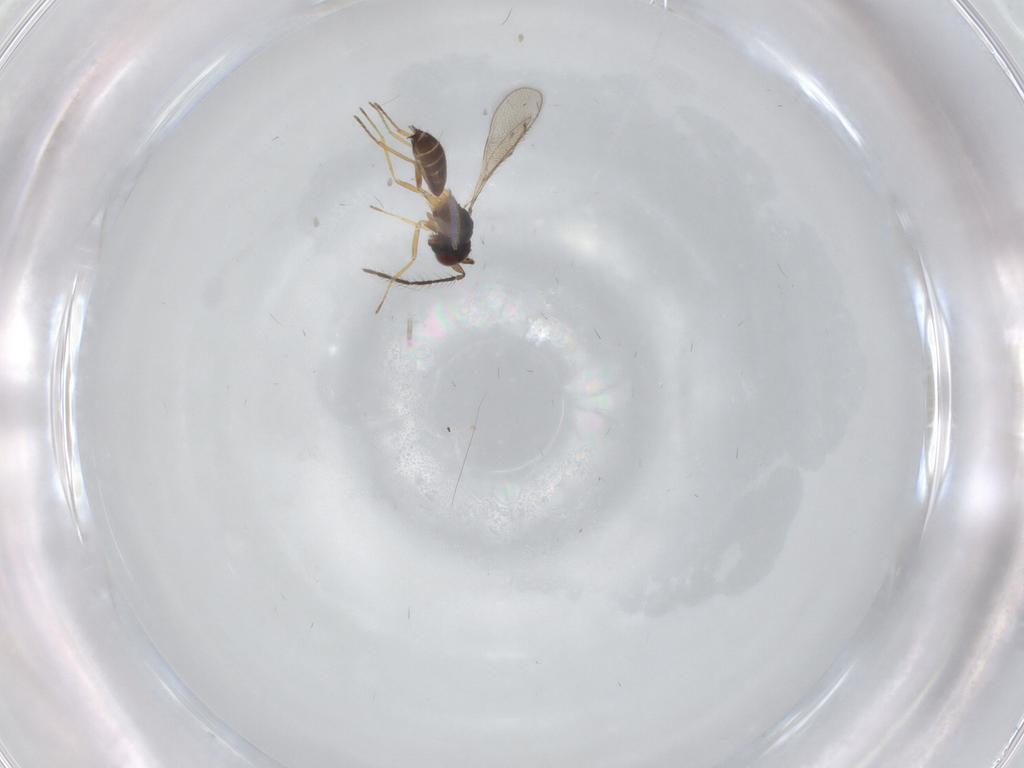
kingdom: Animalia
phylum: Arthropoda
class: Insecta
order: Hymenoptera
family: Eulophidae
